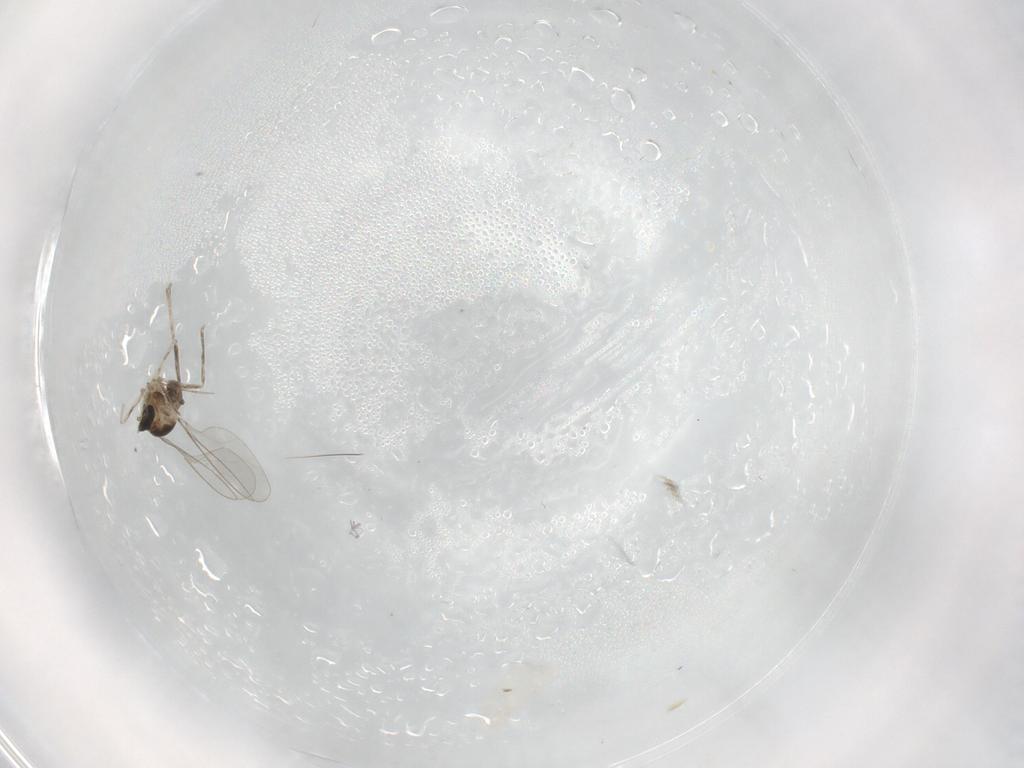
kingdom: Animalia
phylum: Arthropoda
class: Insecta
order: Diptera
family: Cecidomyiidae
